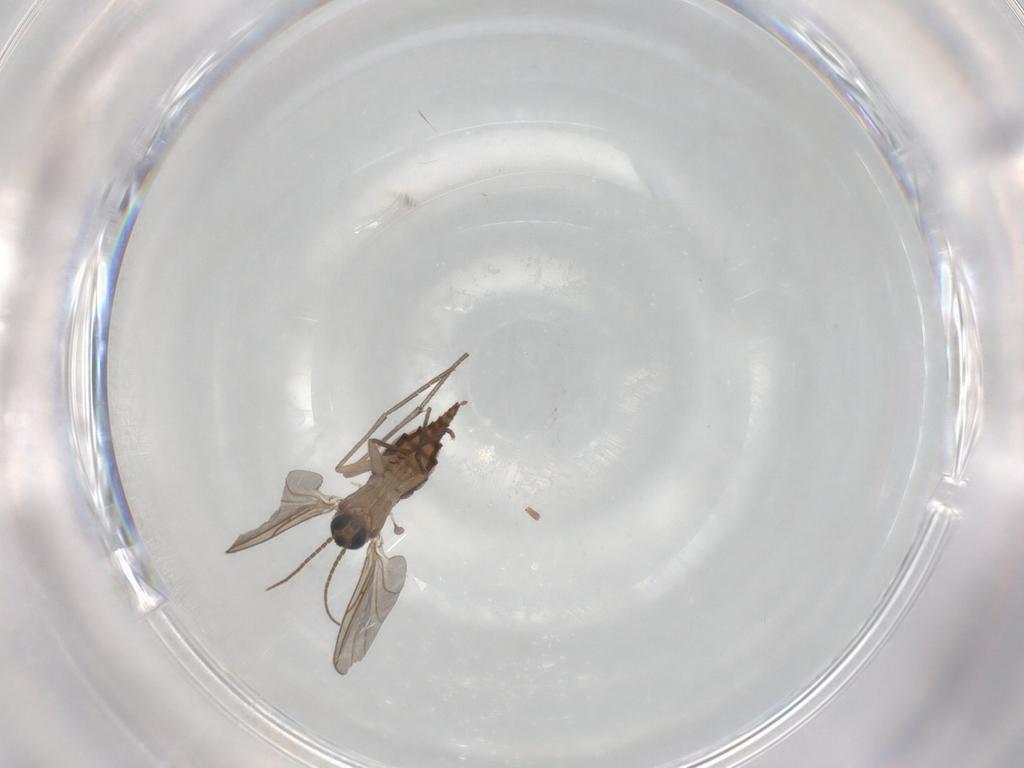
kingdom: Animalia
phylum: Arthropoda
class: Insecta
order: Diptera
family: Sciaridae
